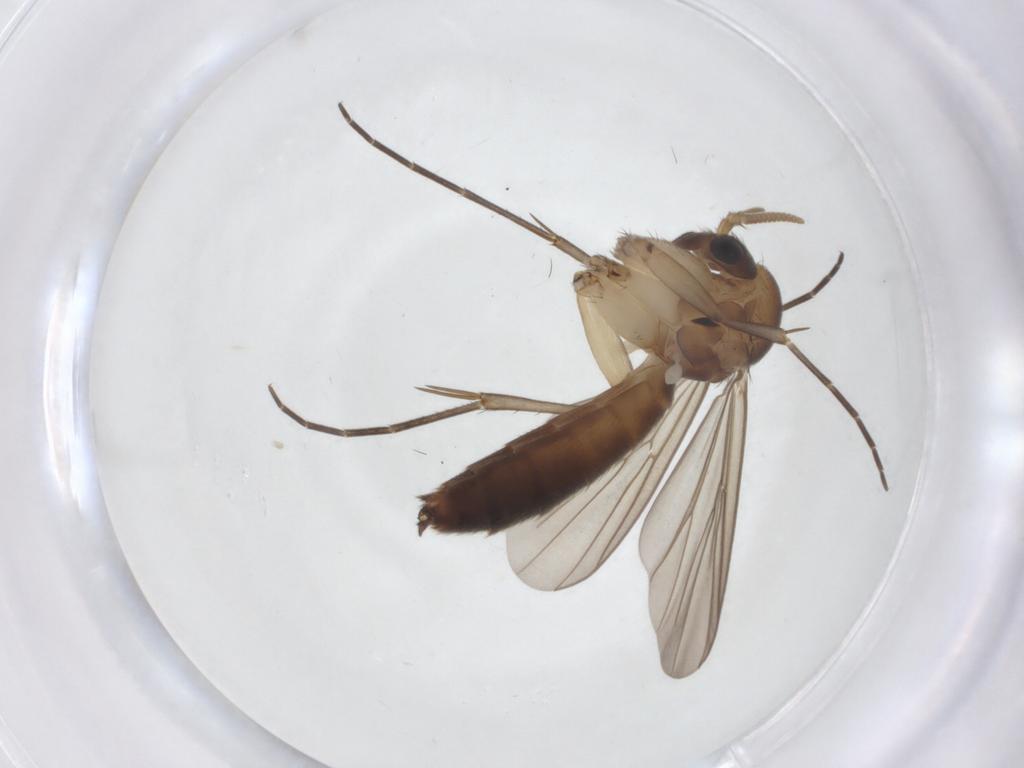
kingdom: Animalia
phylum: Arthropoda
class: Insecta
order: Diptera
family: Mycetophilidae
